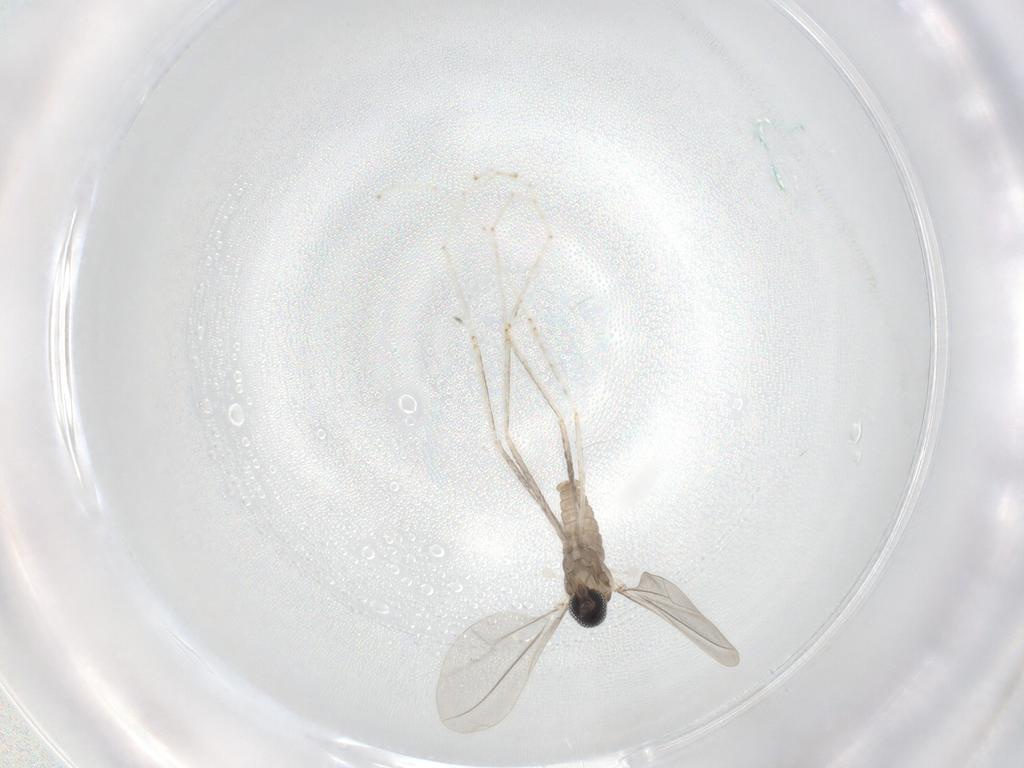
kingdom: Animalia
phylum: Arthropoda
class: Insecta
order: Diptera
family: Cecidomyiidae
